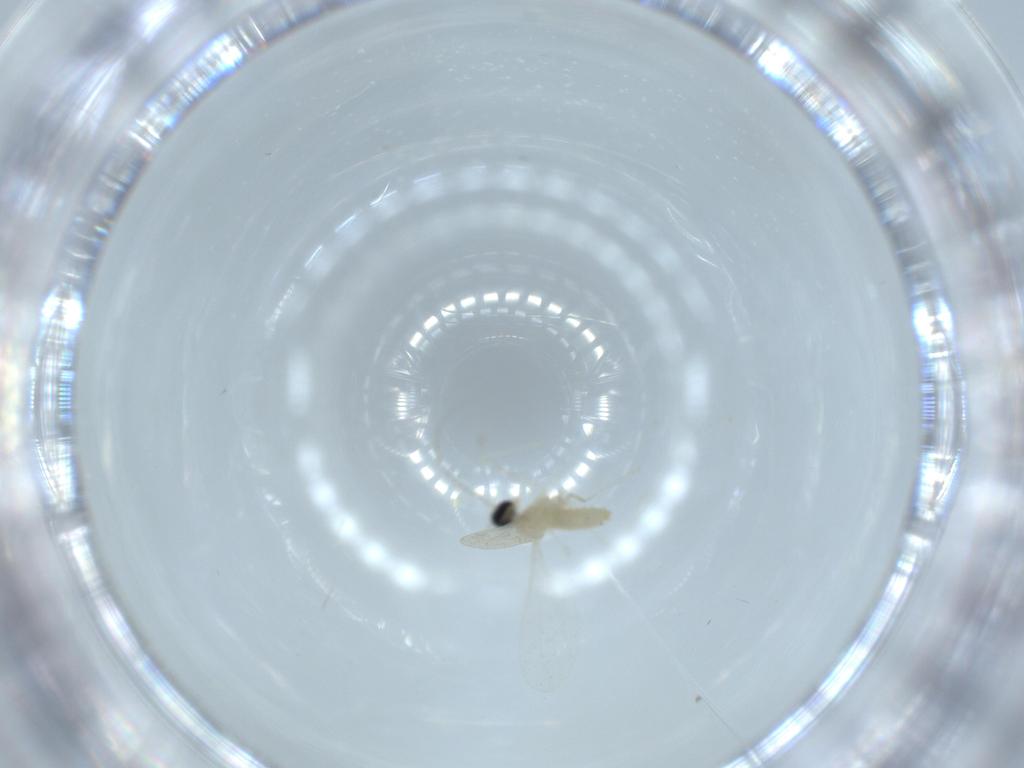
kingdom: Animalia
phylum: Arthropoda
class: Insecta
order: Diptera
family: Cecidomyiidae
